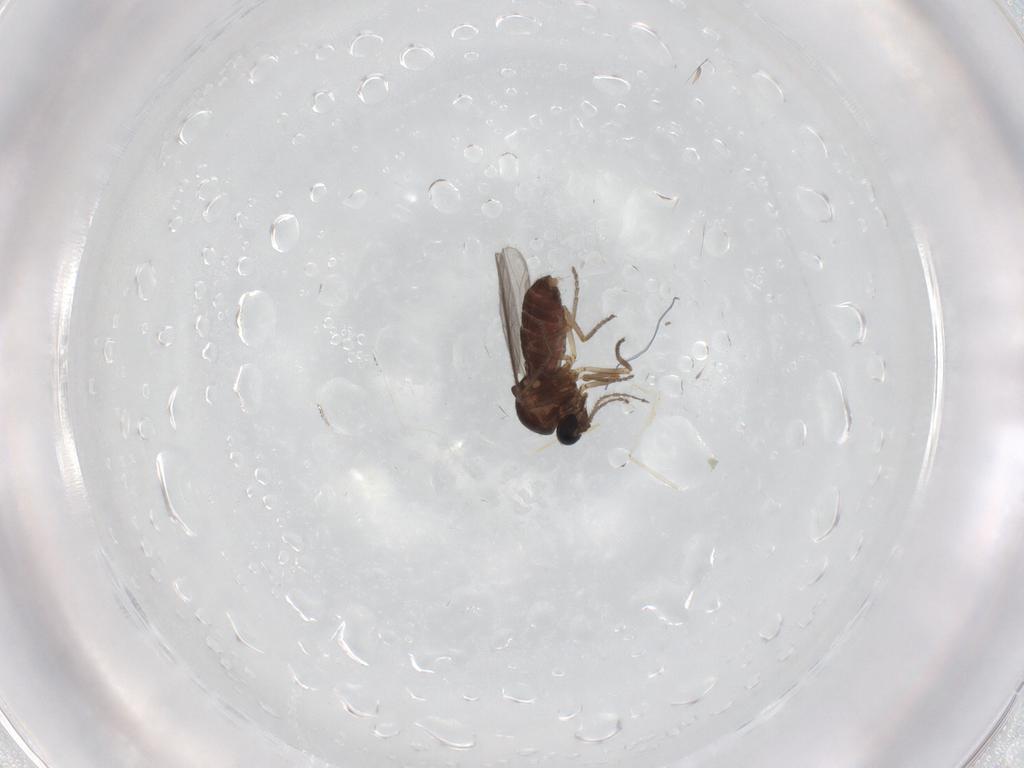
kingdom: Animalia
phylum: Arthropoda
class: Insecta
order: Diptera
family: Ceratopogonidae
